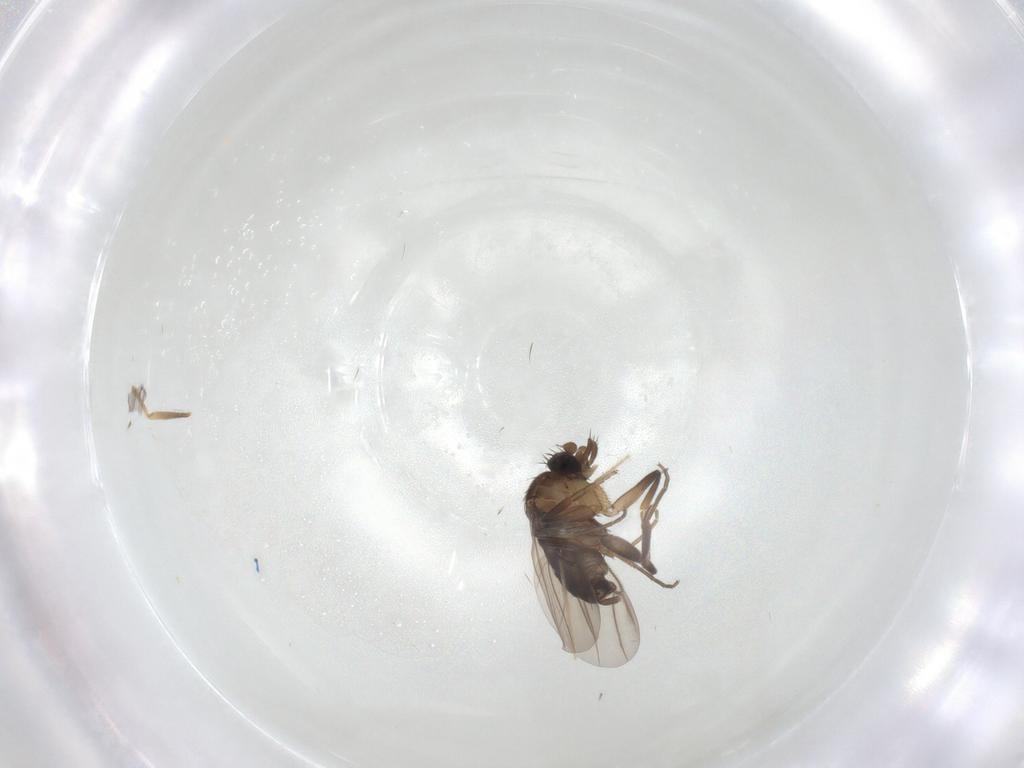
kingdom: Animalia
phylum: Arthropoda
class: Insecta
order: Diptera
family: Phoridae
